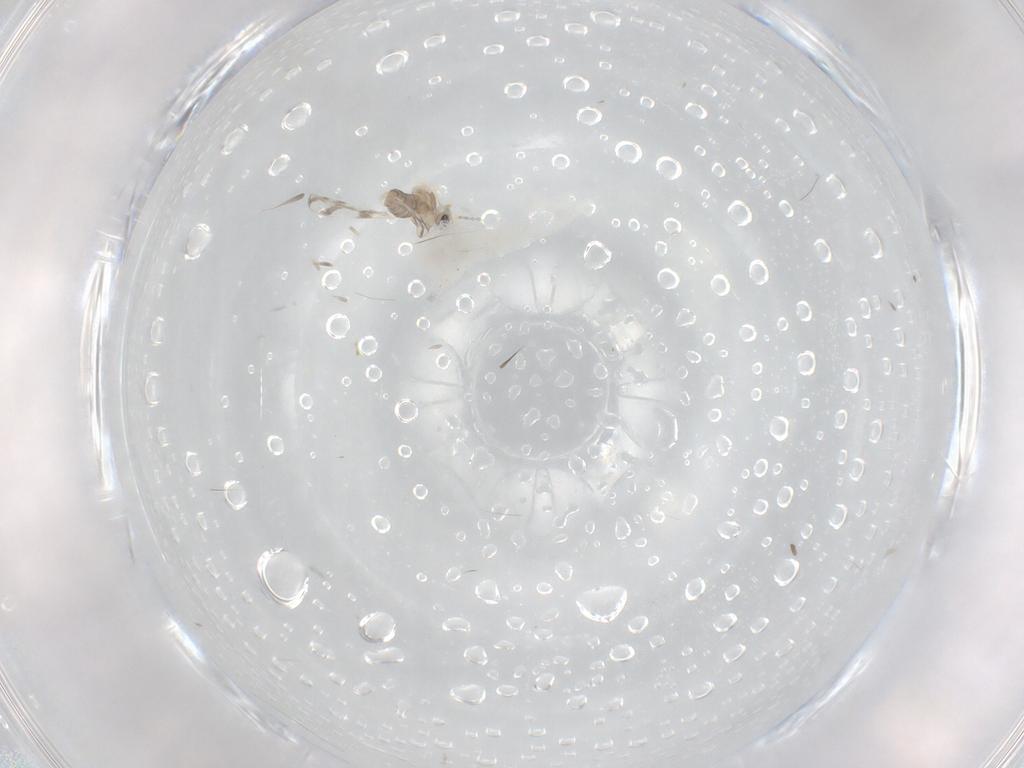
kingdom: Animalia
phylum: Arthropoda
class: Insecta
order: Diptera
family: Cecidomyiidae
